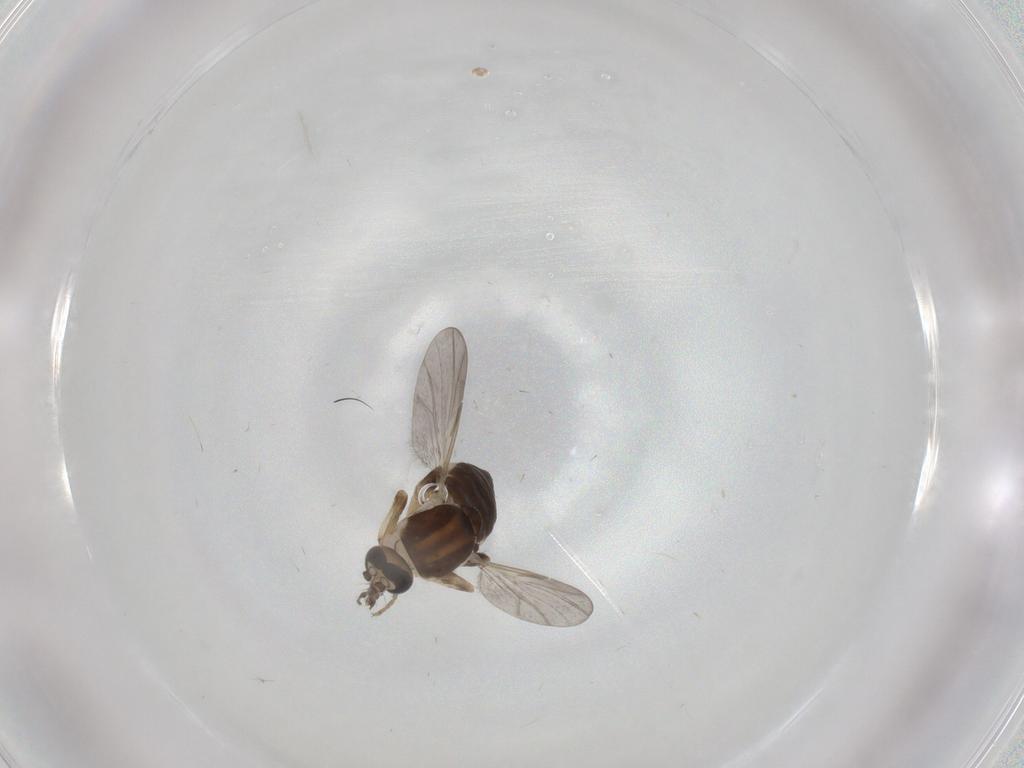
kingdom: Animalia
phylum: Arthropoda
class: Insecta
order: Diptera
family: Ceratopogonidae
